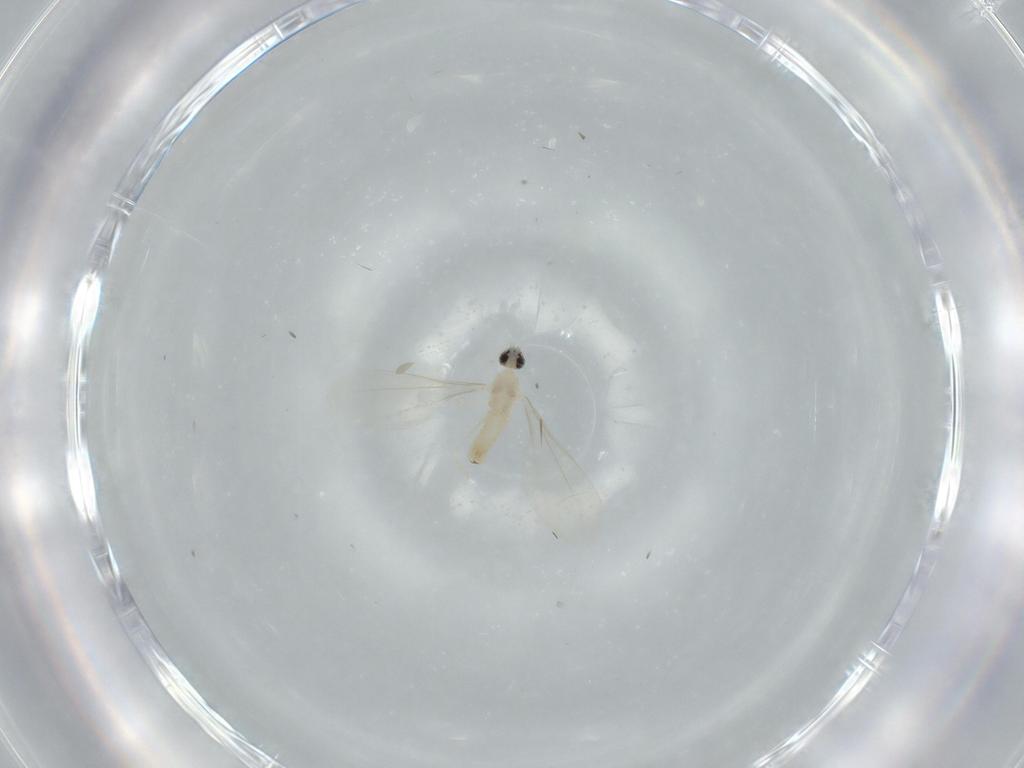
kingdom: Animalia
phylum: Arthropoda
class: Insecta
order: Diptera
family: Cecidomyiidae
